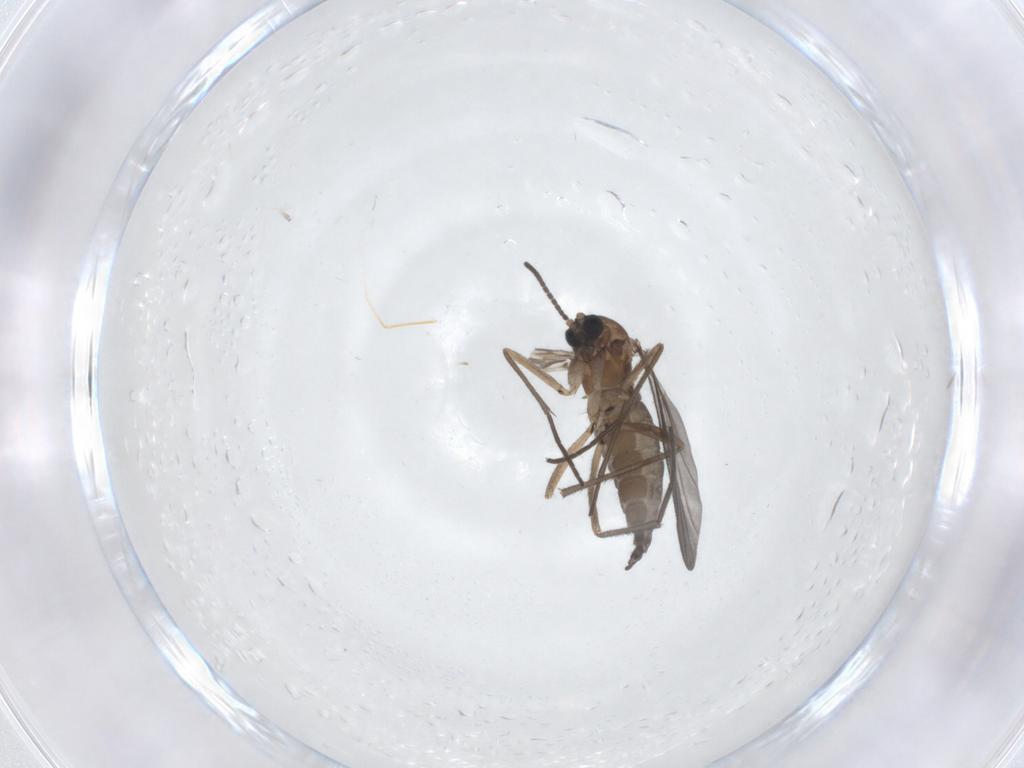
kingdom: Animalia
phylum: Arthropoda
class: Insecta
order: Diptera
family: Sciaridae
